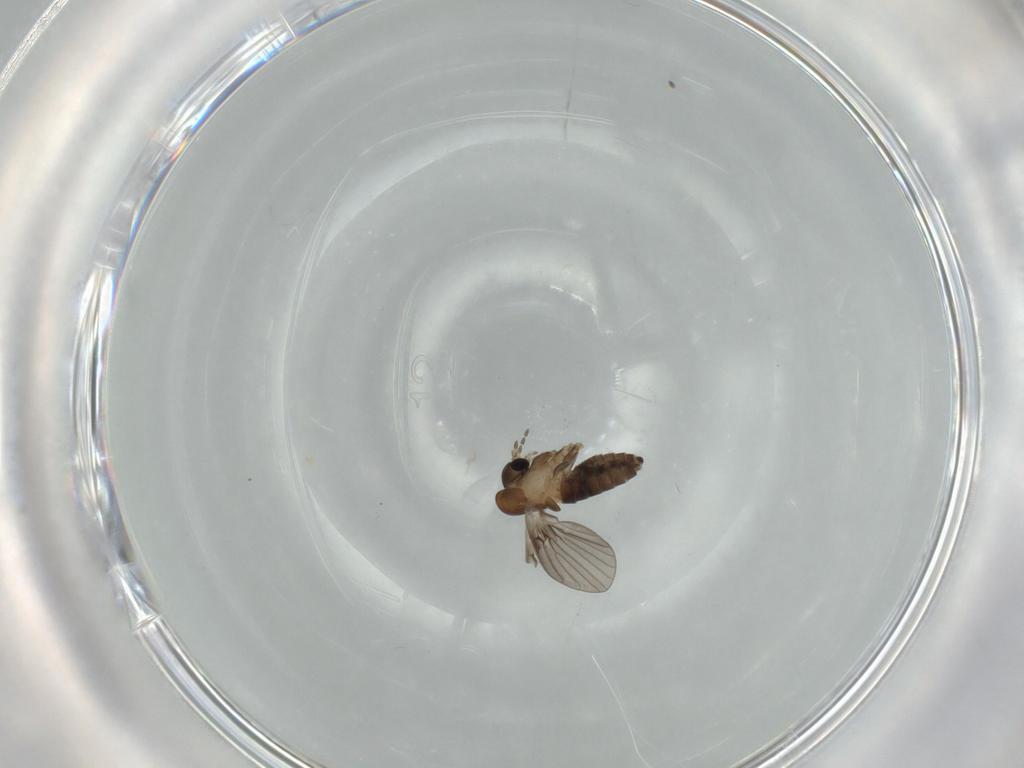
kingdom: Animalia
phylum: Arthropoda
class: Insecta
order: Diptera
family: Psychodidae
